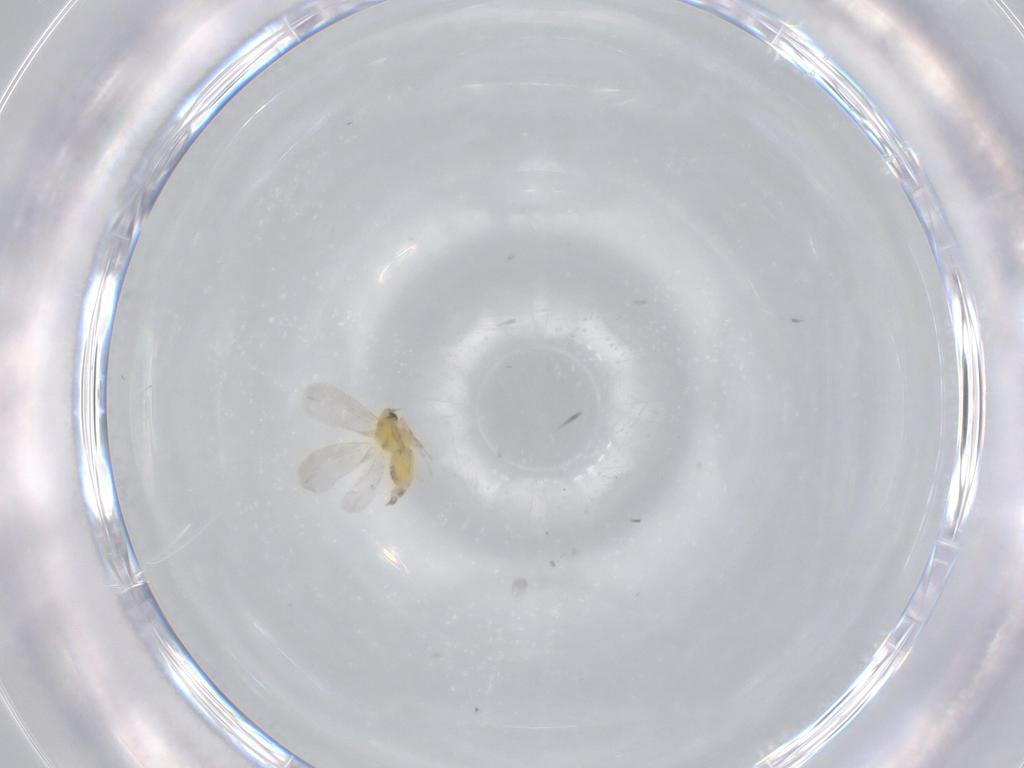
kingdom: Animalia
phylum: Arthropoda
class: Insecta
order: Hemiptera
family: Aleyrodidae
